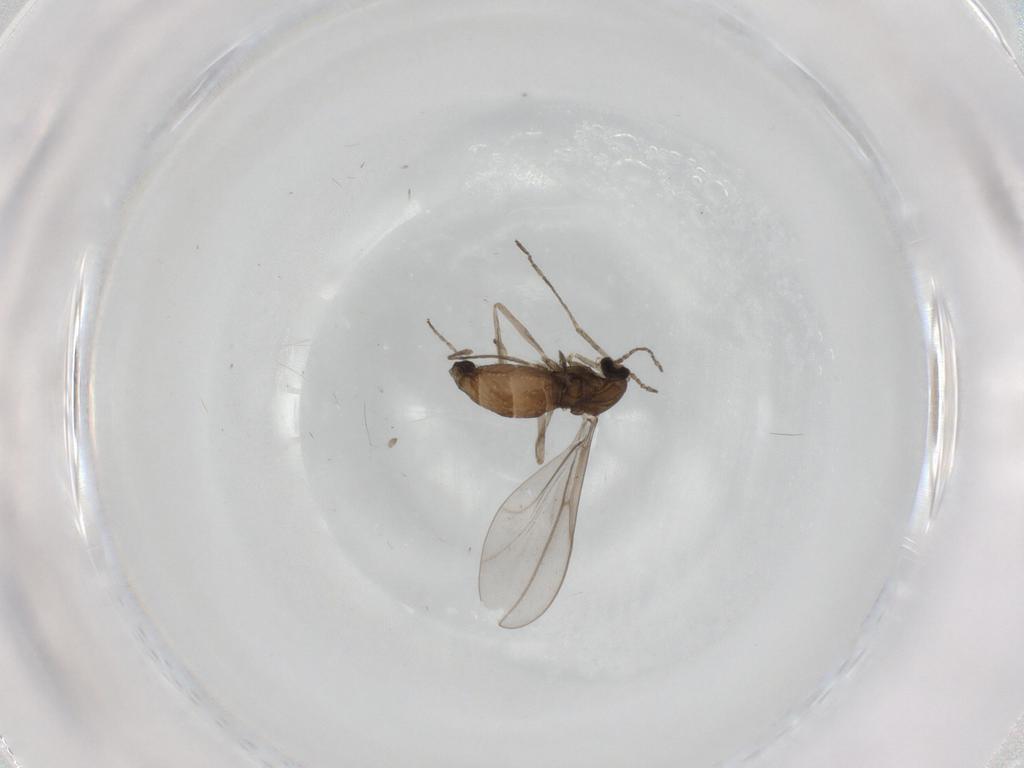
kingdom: Animalia
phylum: Arthropoda
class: Insecta
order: Diptera
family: Cecidomyiidae
